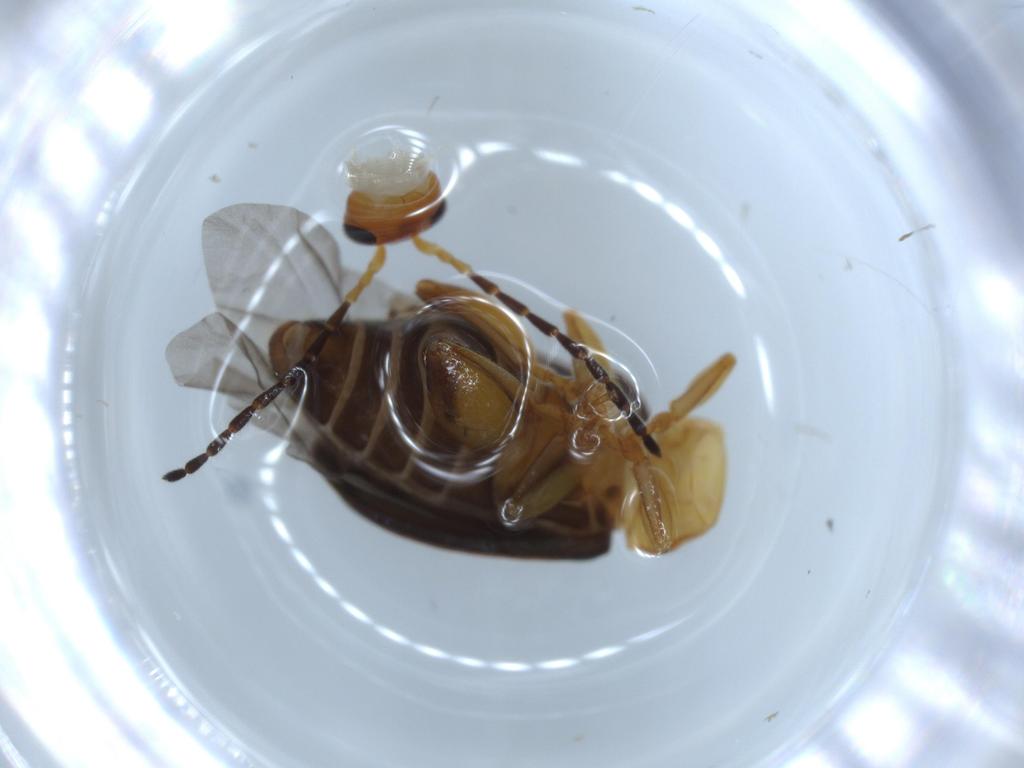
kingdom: Animalia
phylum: Arthropoda
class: Insecta
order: Coleoptera
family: Chrysomelidae
